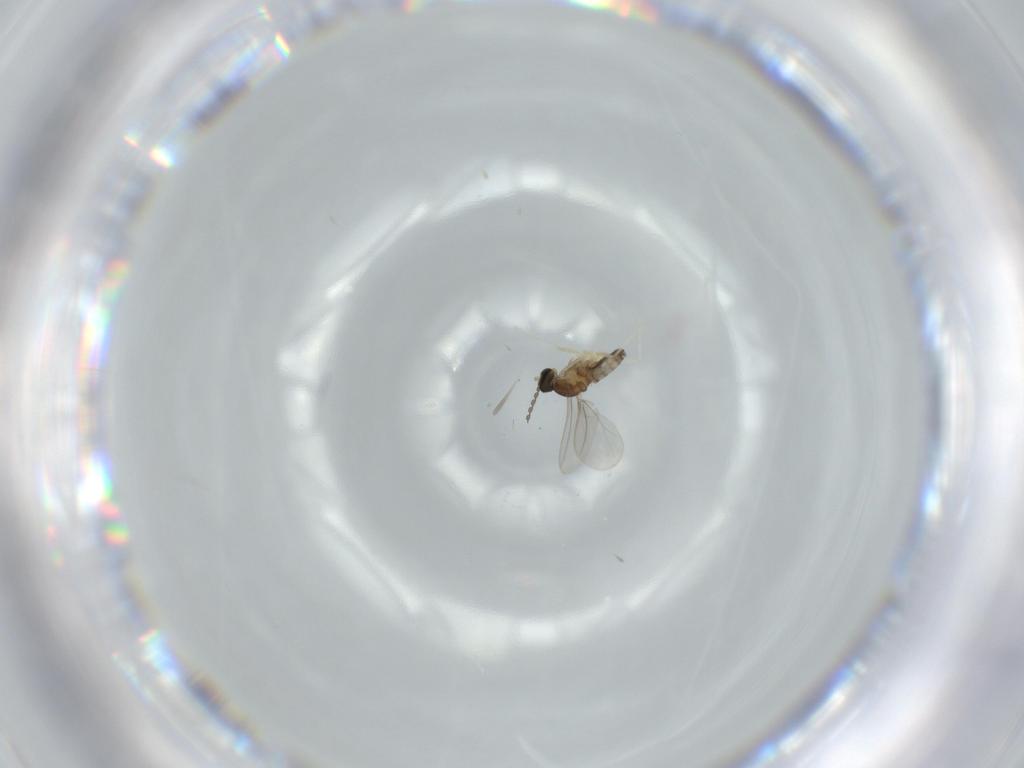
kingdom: Animalia
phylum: Arthropoda
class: Insecta
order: Diptera
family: Cecidomyiidae
